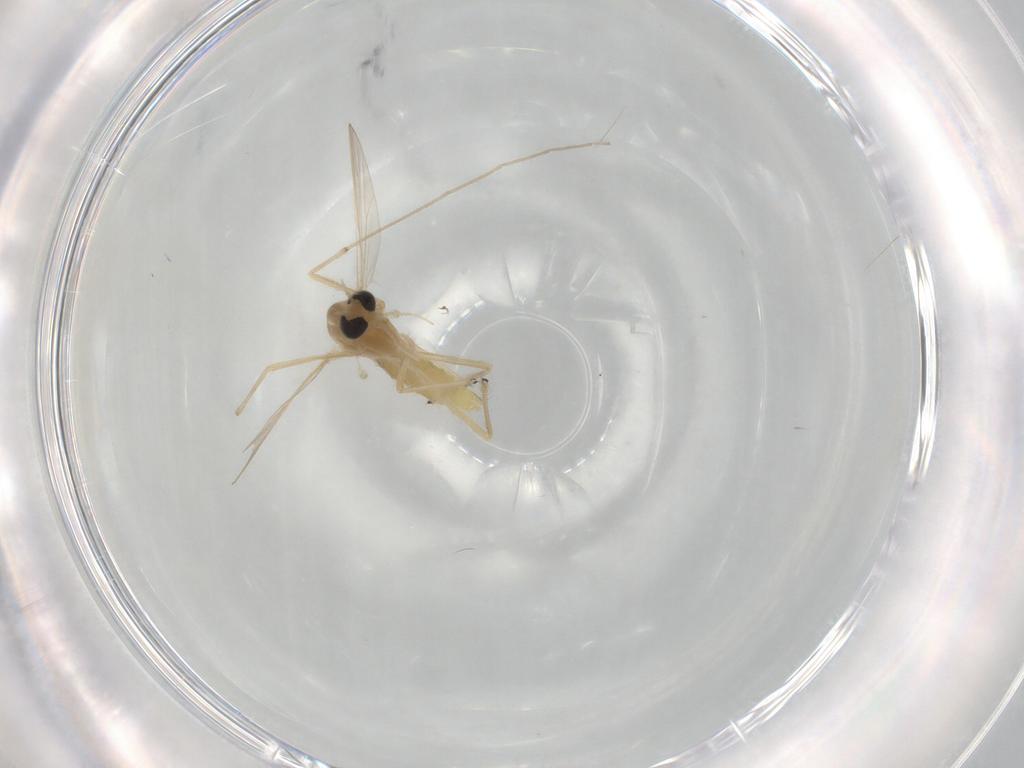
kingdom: Animalia
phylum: Arthropoda
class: Insecta
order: Diptera
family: Chironomidae
